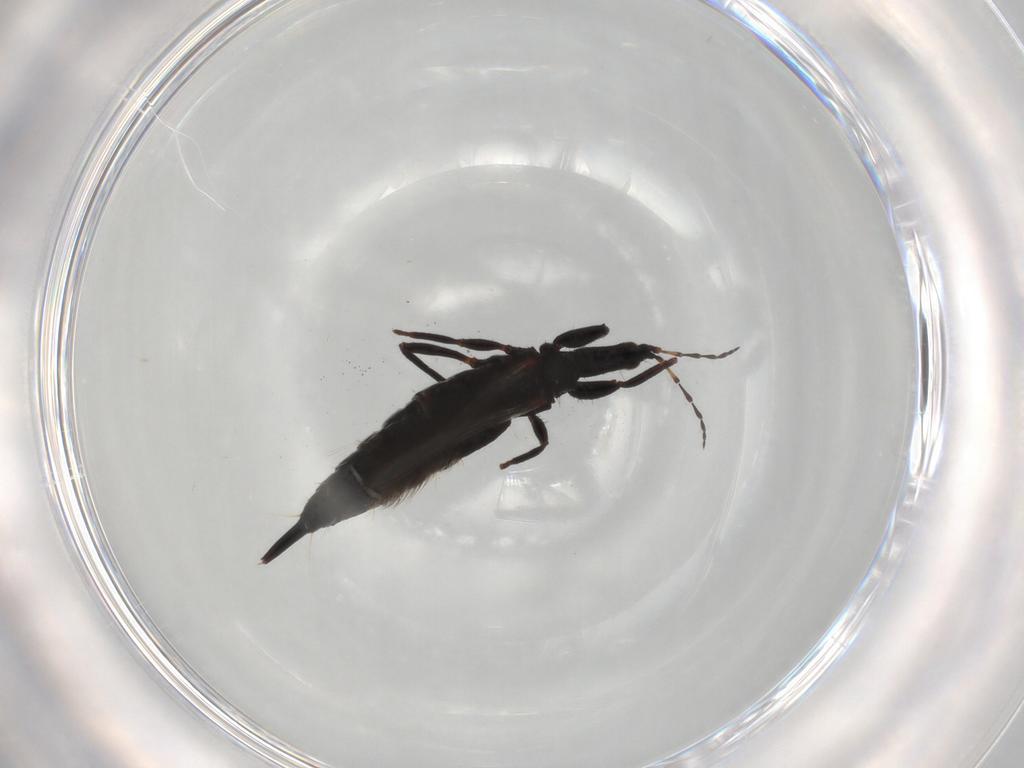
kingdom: Animalia
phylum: Arthropoda
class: Insecta
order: Thysanoptera
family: Phlaeothripidae
